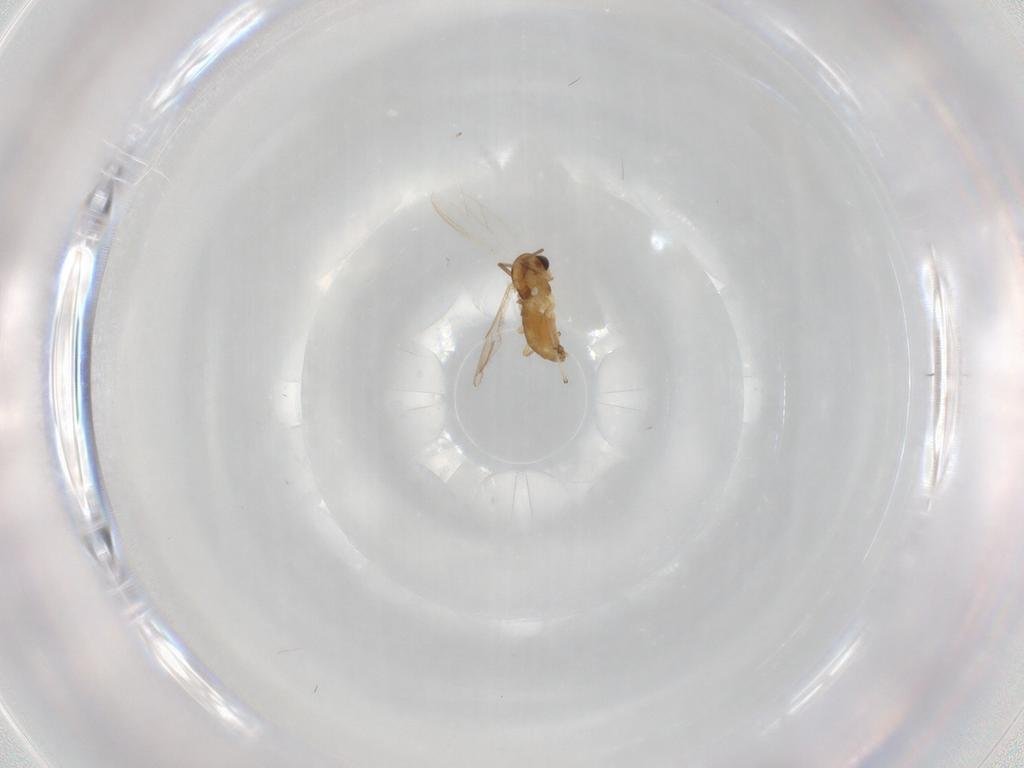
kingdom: Animalia
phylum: Arthropoda
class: Insecta
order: Diptera
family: Chironomidae
